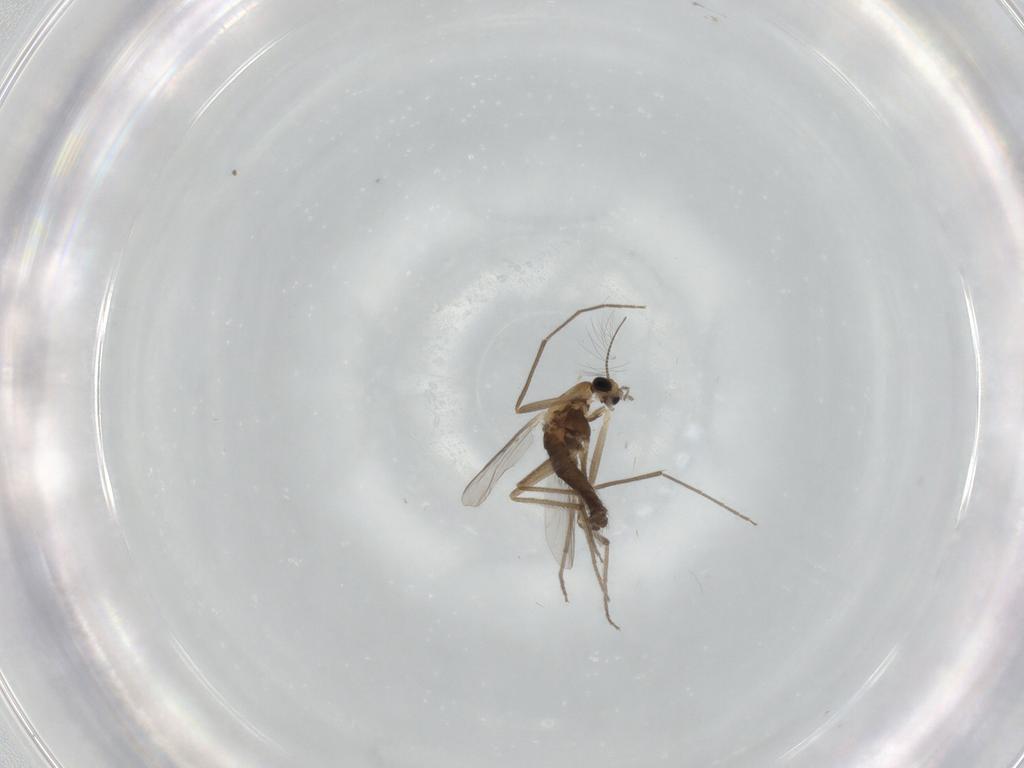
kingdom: Animalia
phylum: Arthropoda
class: Insecta
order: Diptera
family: Chironomidae
